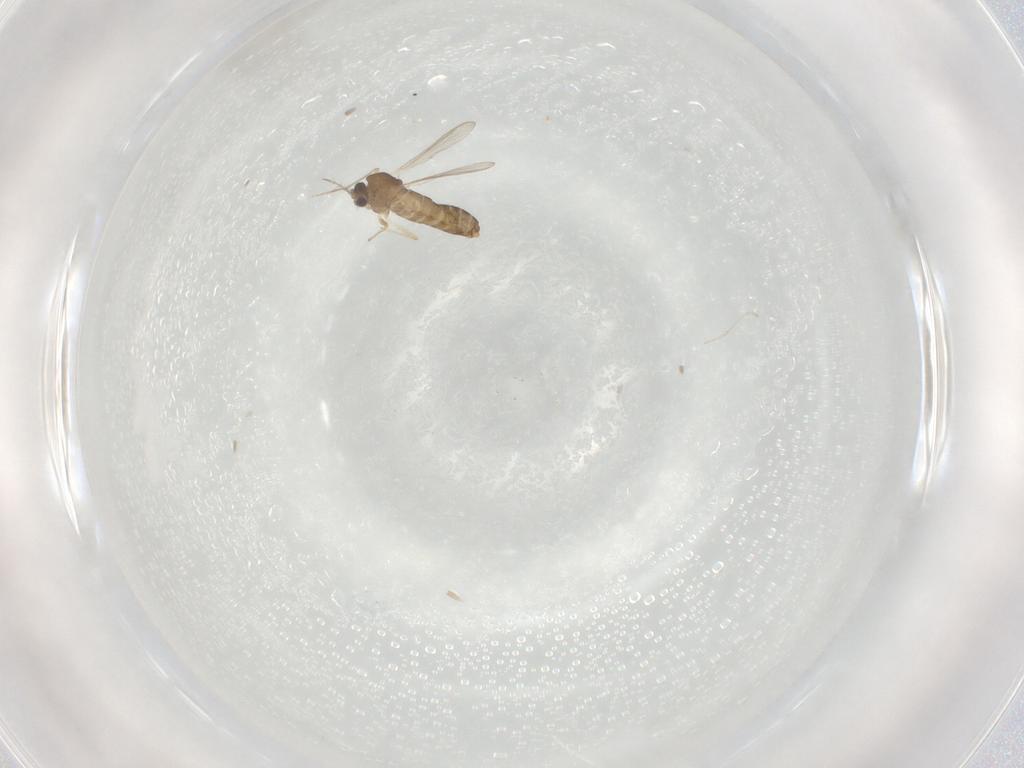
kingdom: Animalia
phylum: Arthropoda
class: Insecta
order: Diptera
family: Chironomidae
